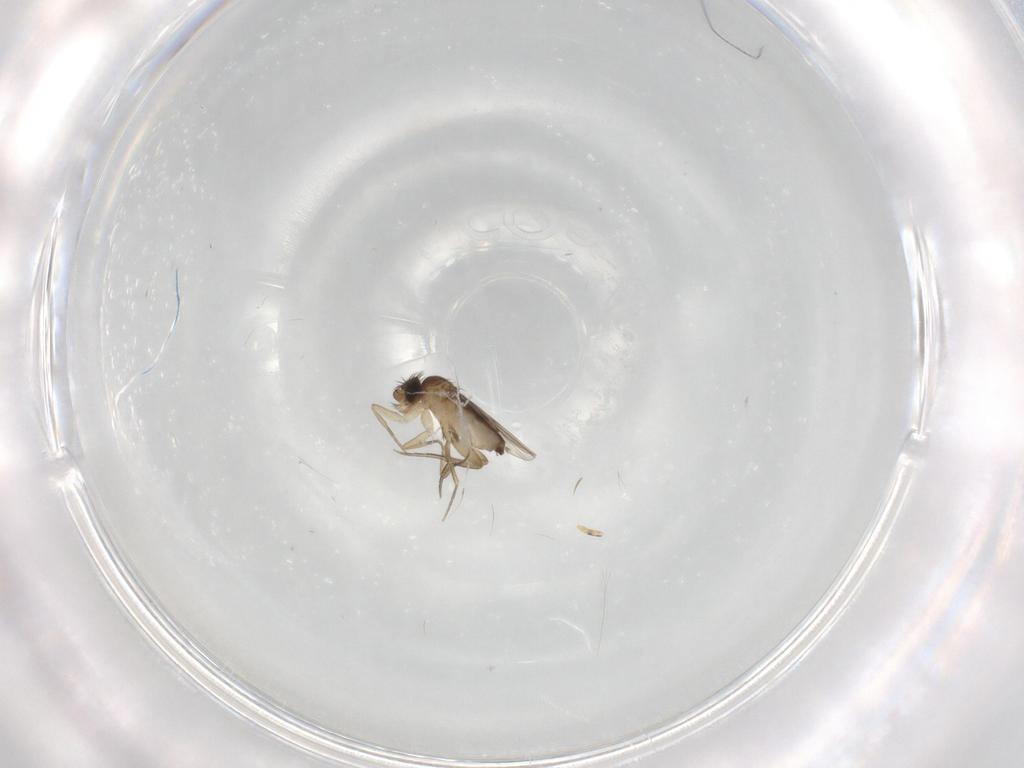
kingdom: Animalia
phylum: Arthropoda
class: Insecta
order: Diptera
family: Phoridae
